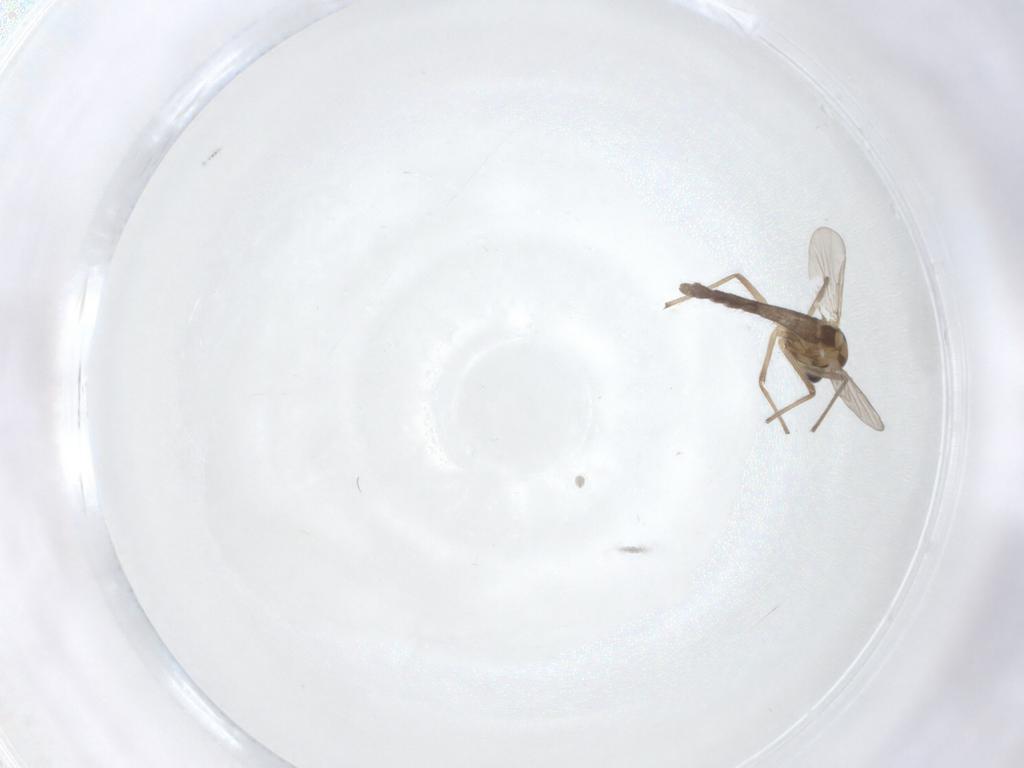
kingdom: Animalia
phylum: Arthropoda
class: Insecta
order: Diptera
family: Chironomidae
